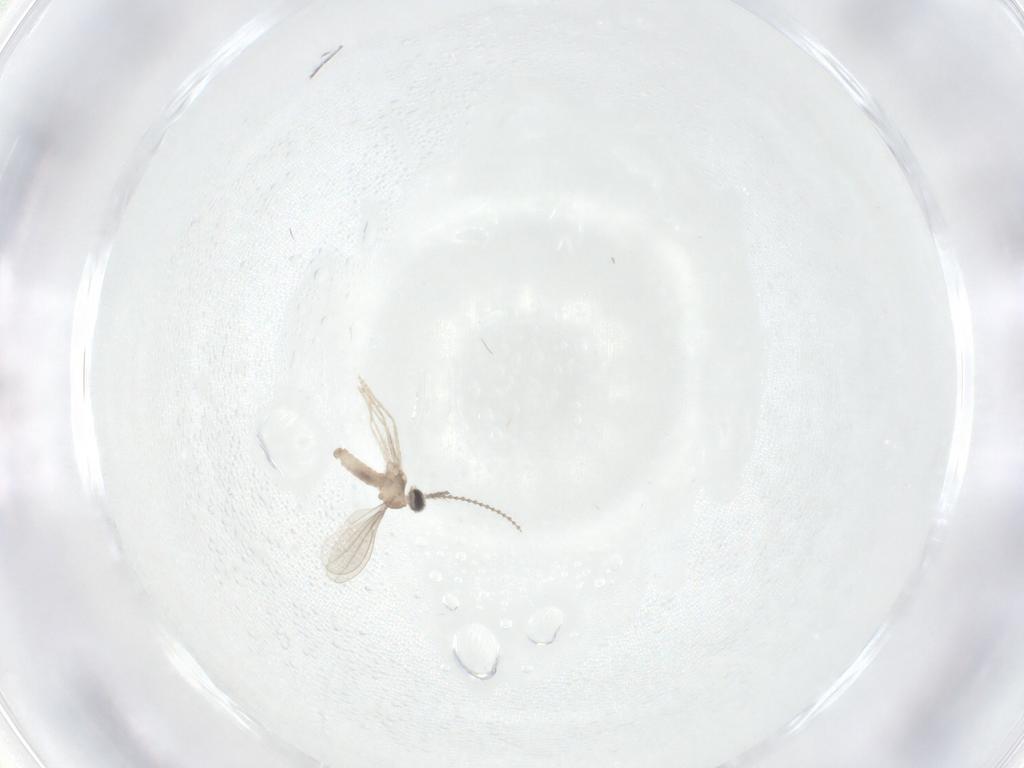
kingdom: Animalia
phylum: Arthropoda
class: Insecta
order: Diptera
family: Chironomidae
